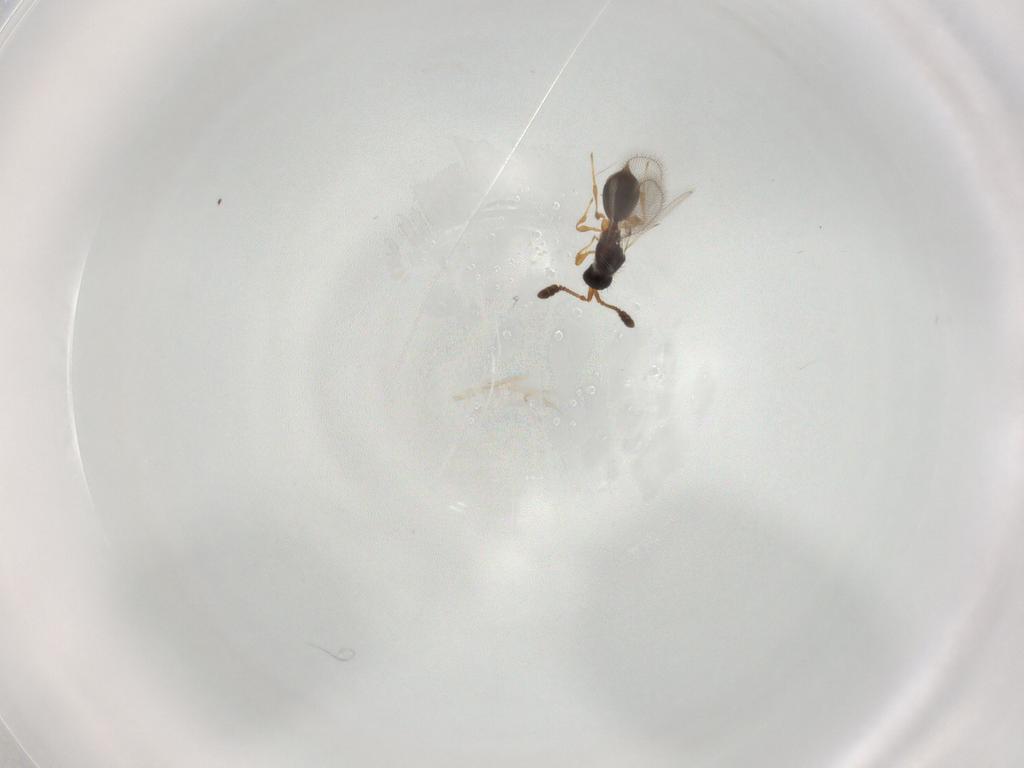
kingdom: Animalia
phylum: Arthropoda
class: Insecta
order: Hymenoptera
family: Diapriidae
